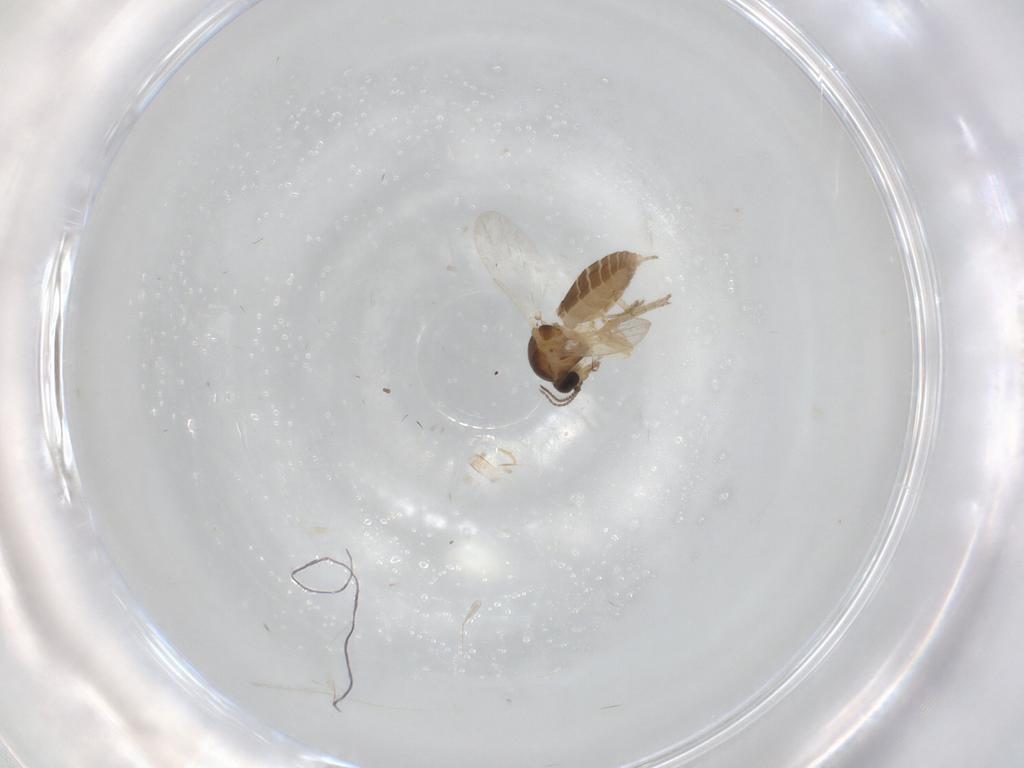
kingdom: Animalia
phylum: Arthropoda
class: Insecta
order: Diptera
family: Ceratopogonidae
